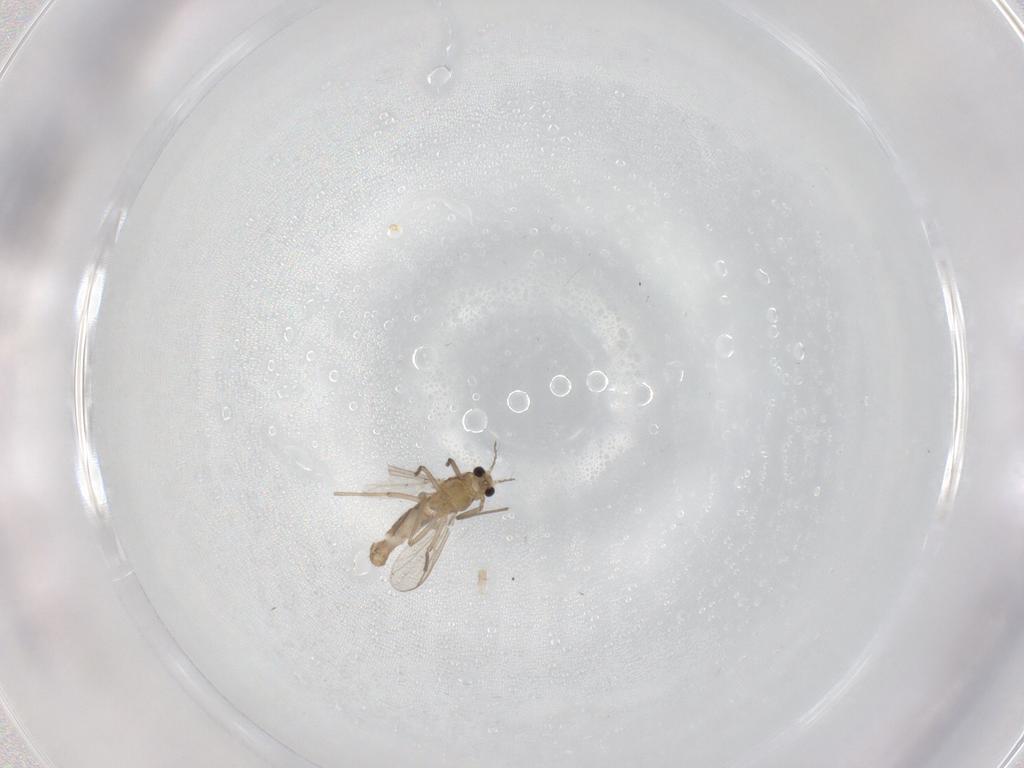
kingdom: Animalia
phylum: Arthropoda
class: Insecta
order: Diptera
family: Chironomidae
